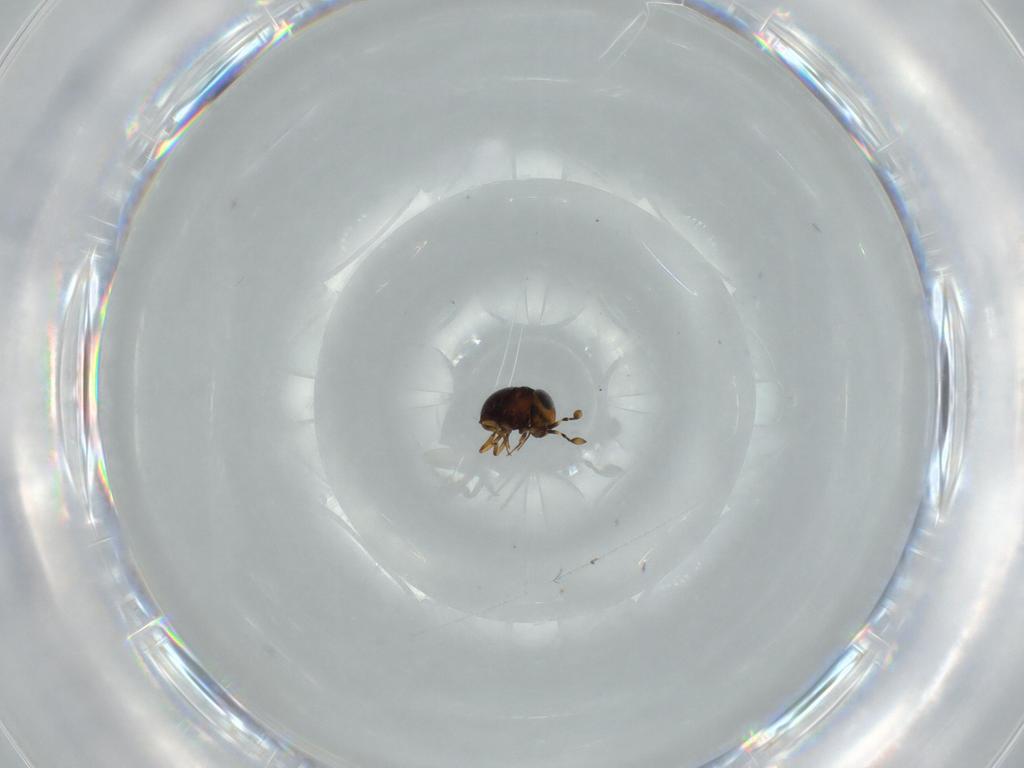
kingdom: Animalia
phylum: Arthropoda
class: Insecta
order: Hymenoptera
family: Scelionidae
